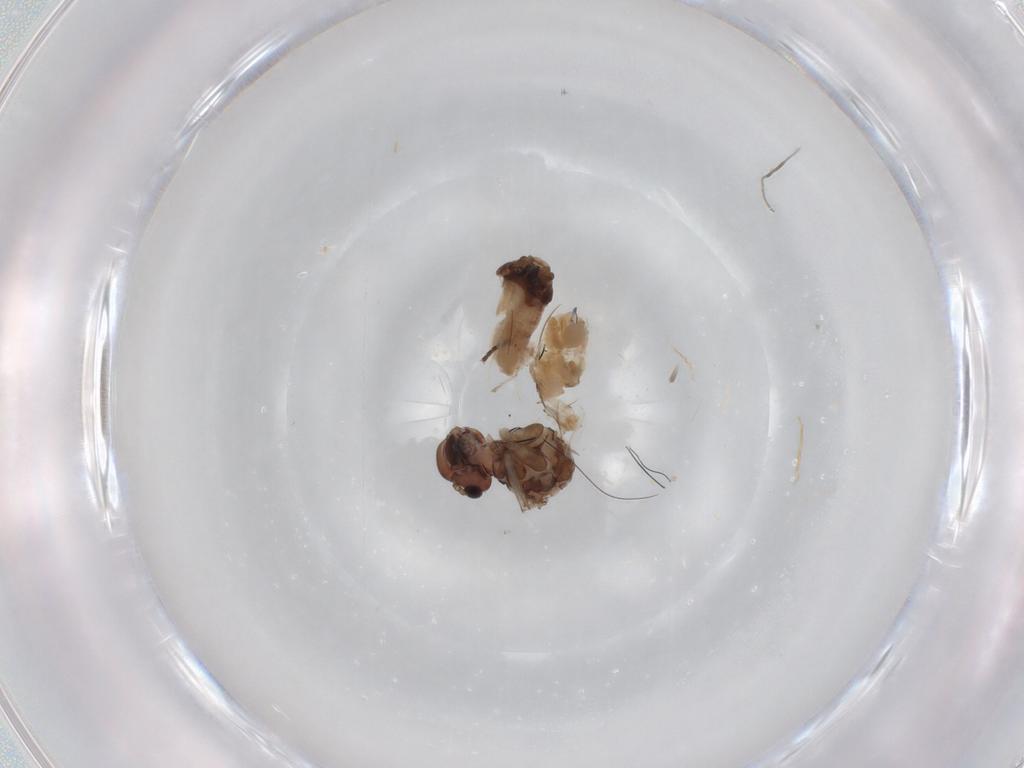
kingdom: Animalia
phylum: Arthropoda
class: Insecta
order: Psocodea
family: Peripsocidae
